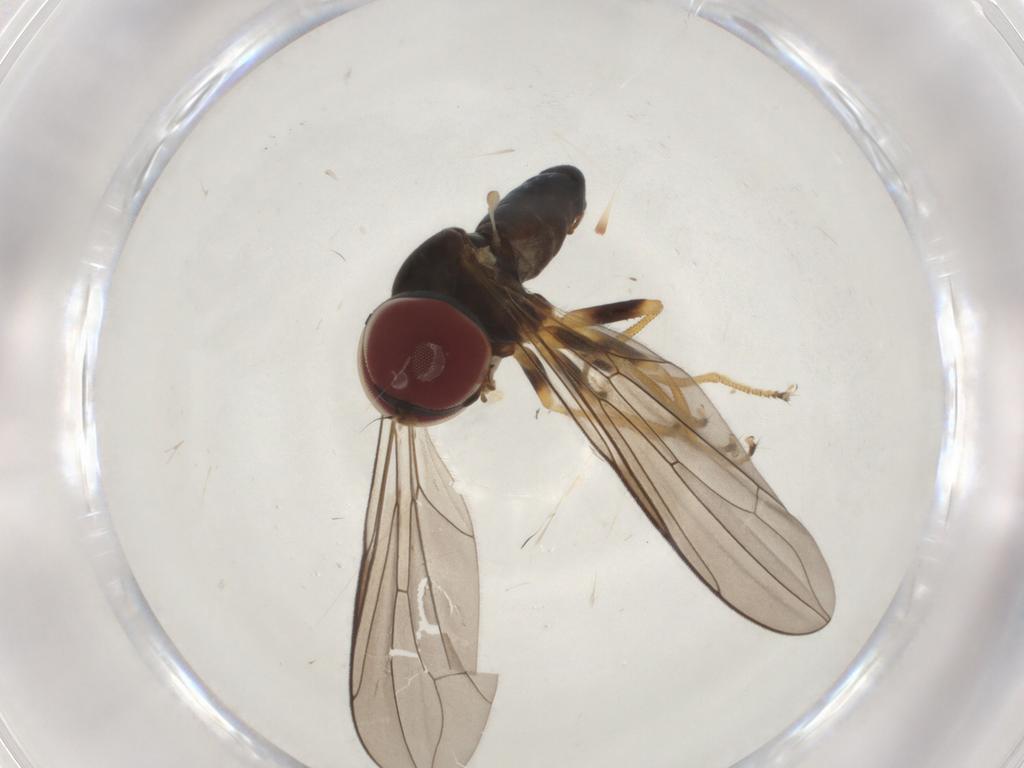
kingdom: Animalia
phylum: Arthropoda
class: Insecta
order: Diptera
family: Pipunculidae
